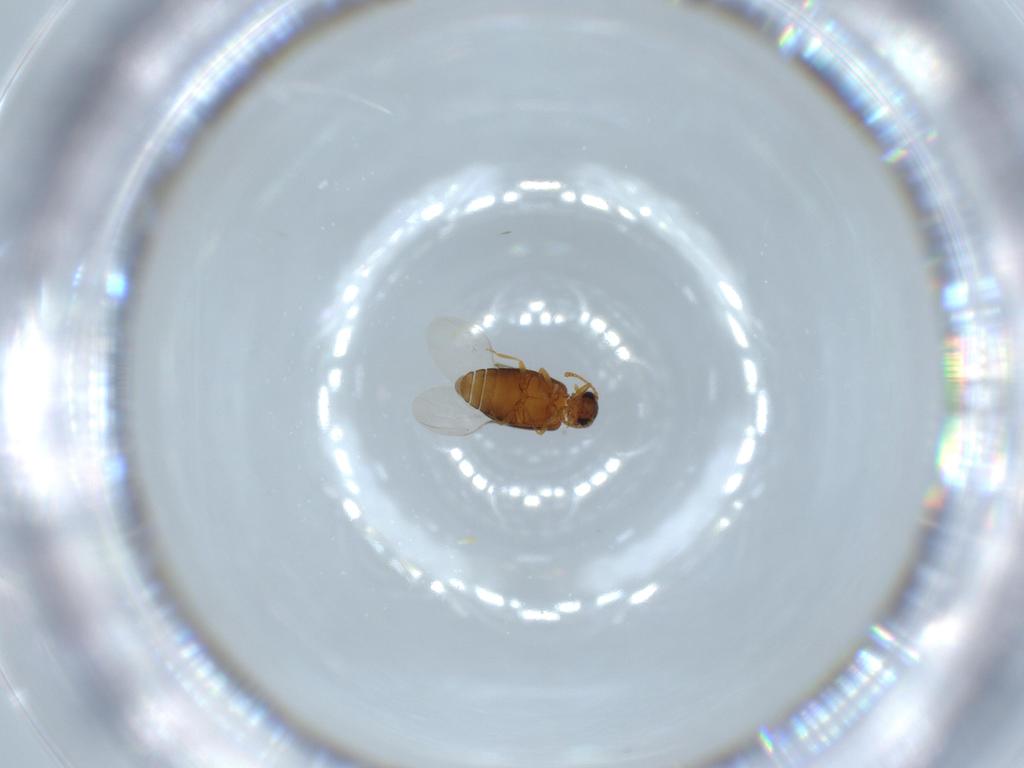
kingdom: Animalia
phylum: Arthropoda
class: Insecta
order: Coleoptera
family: Aderidae
